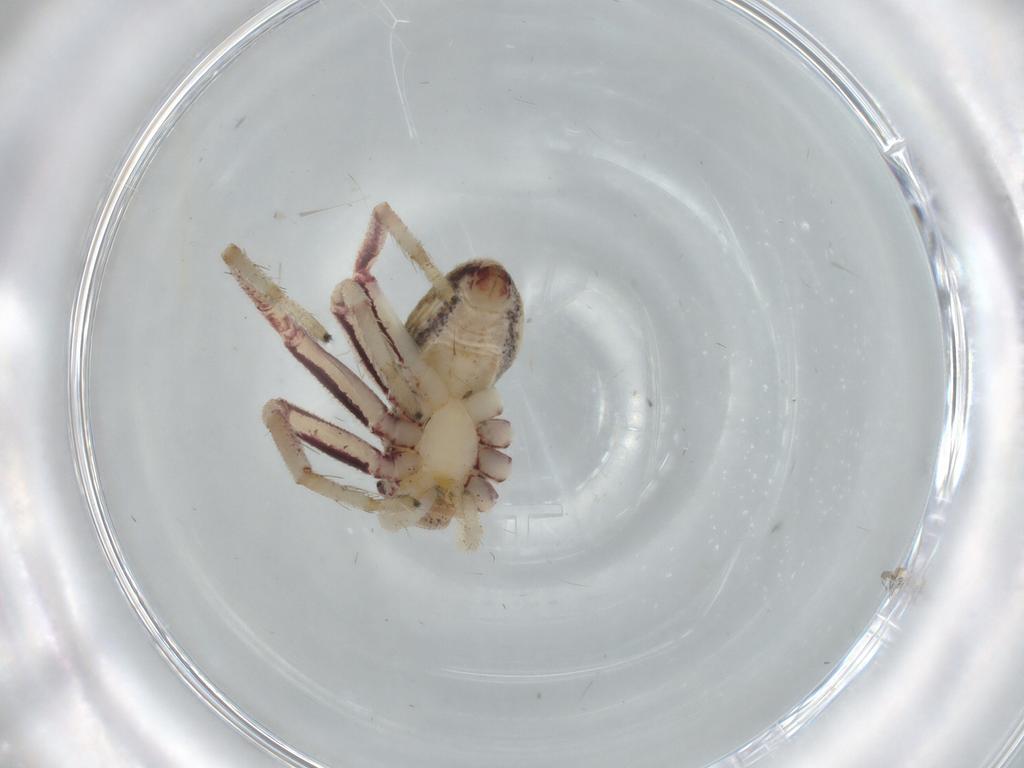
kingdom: Animalia
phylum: Arthropoda
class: Arachnida
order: Araneae
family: Philodromidae
